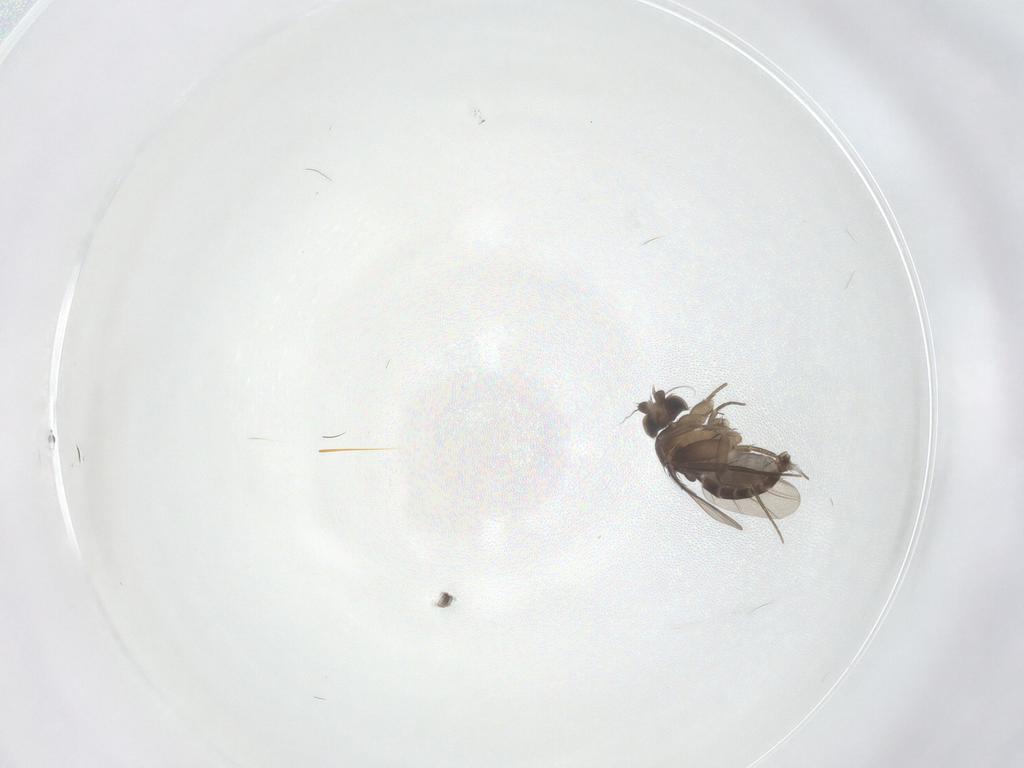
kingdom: Animalia
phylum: Arthropoda
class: Insecta
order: Diptera
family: Phoridae
